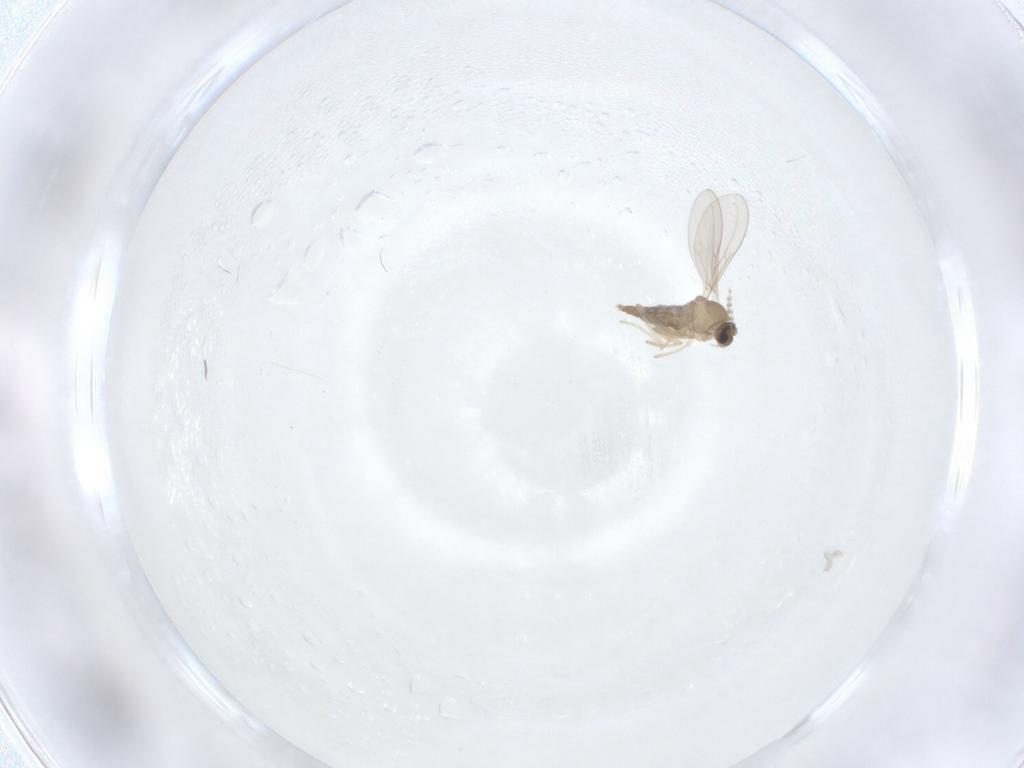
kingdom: Animalia
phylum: Arthropoda
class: Insecta
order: Diptera
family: Cecidomyiidae
